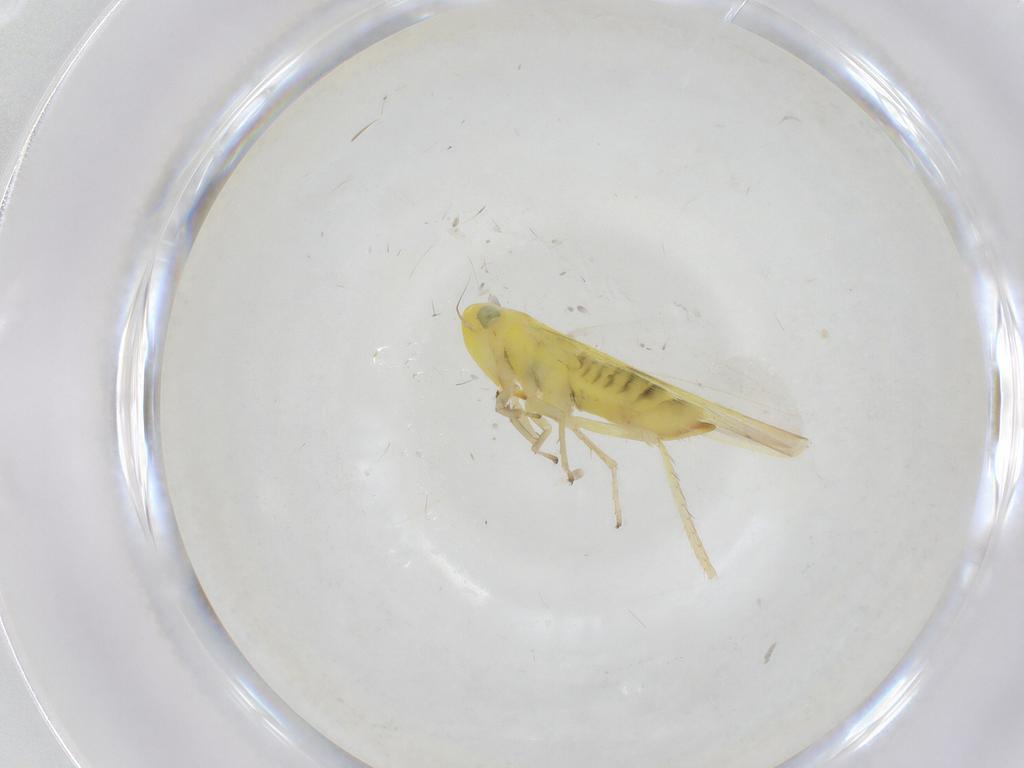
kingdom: Animalia
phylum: Arthropoda
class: Insecta
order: Hemiptera
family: Cicadellidae
